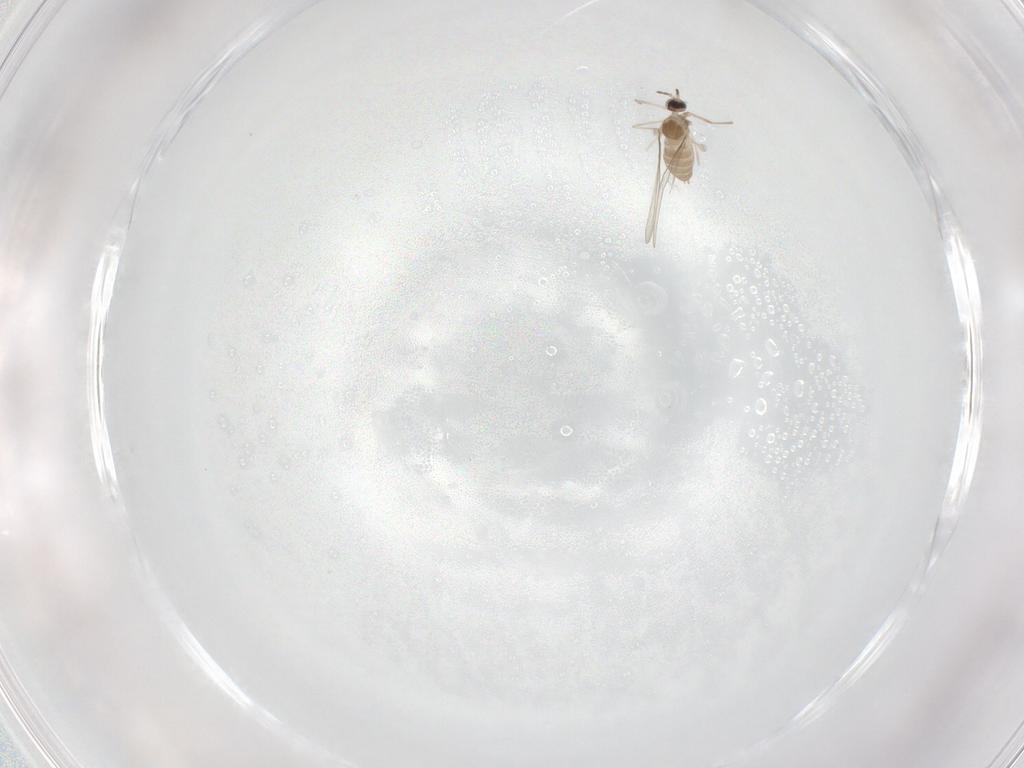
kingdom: Animalia
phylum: Arthropoda
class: Insecta
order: Diptera
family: Cecidomyiidae
